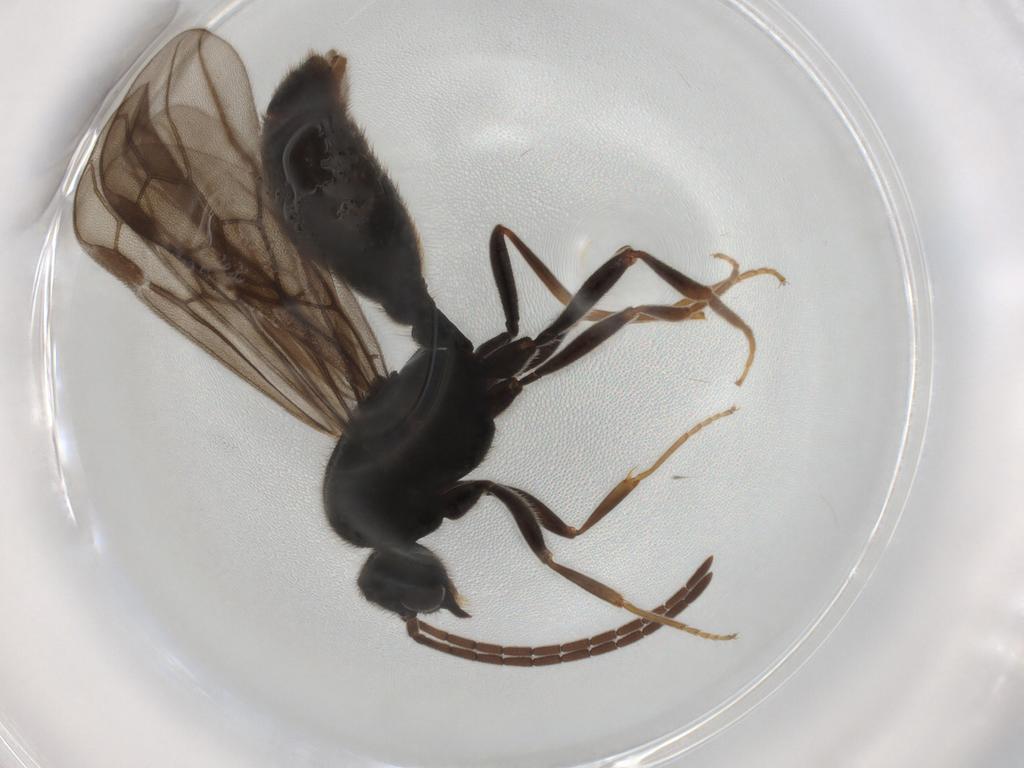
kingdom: Animalia
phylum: Arthropoda
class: Insecta
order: Hymenoptera
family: Formicidae
